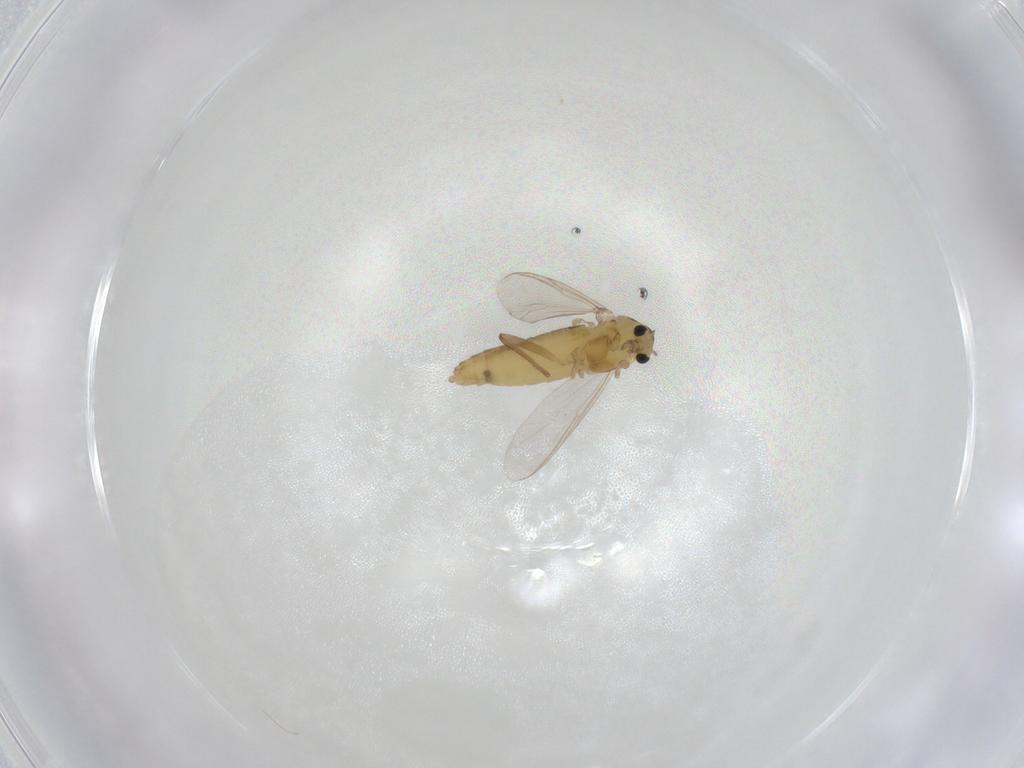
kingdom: Animalia
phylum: Arthropoda
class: Insecta
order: Diptera
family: Chironomidae
